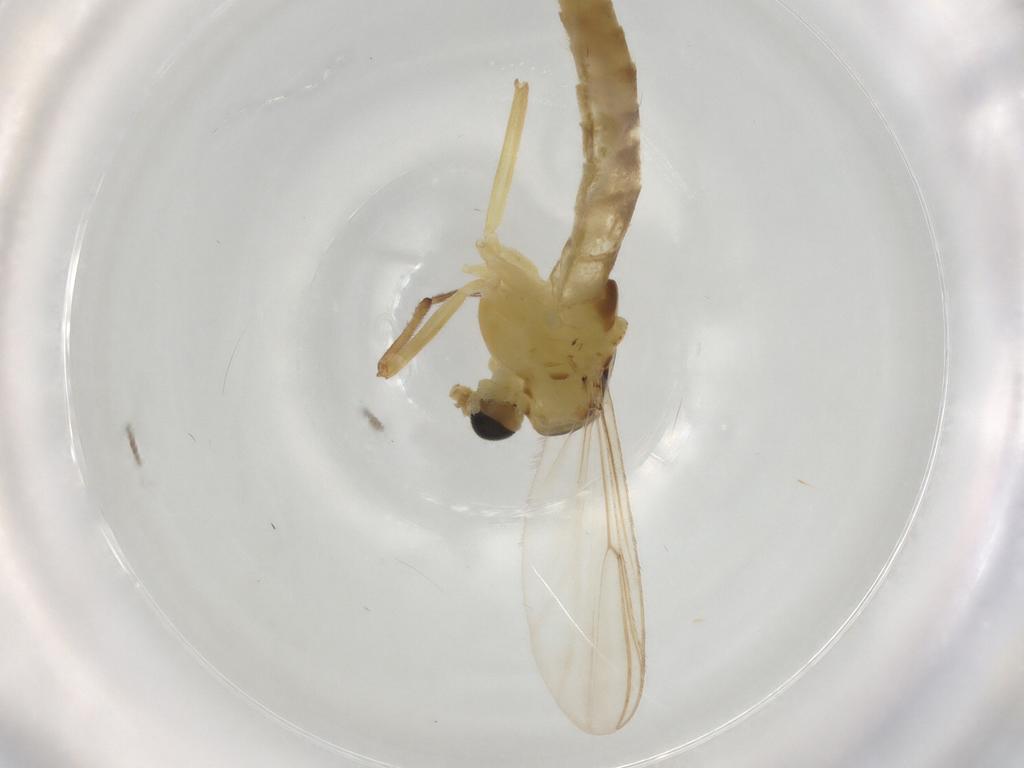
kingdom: Animalia
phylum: Arthropoda
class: Insecta
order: Diptera
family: Cecidomyiidae
